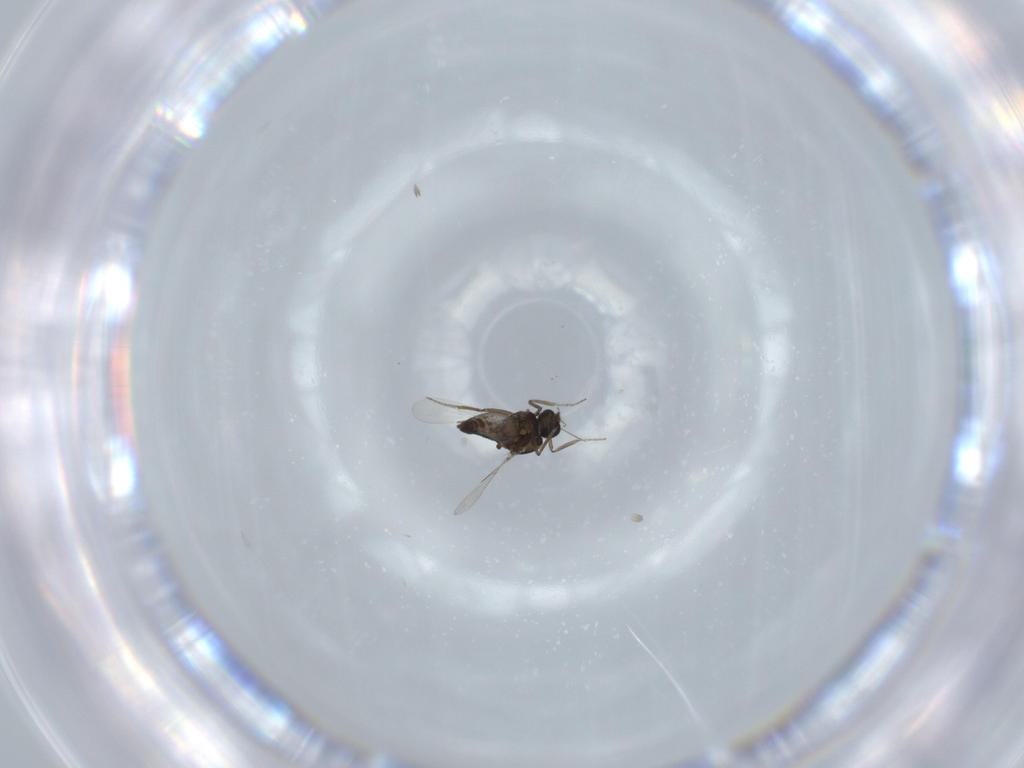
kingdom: Animalia
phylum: Arthropoda
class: Insecta
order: Diptera
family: Ceratopogonidae
